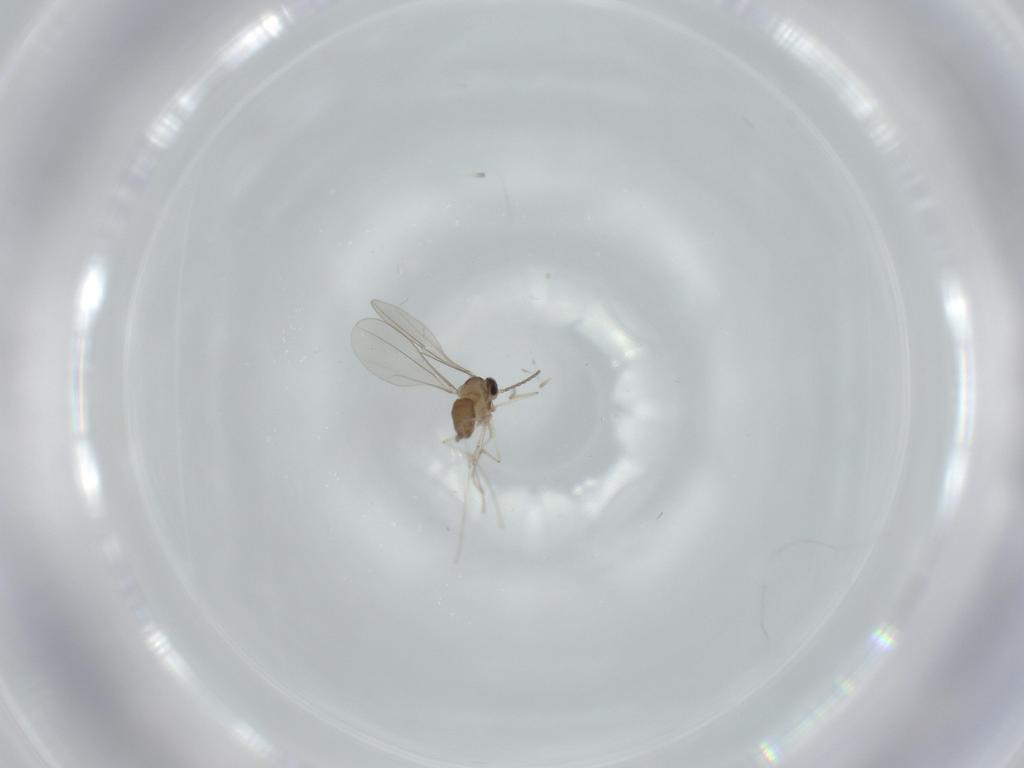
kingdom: Animalia
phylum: Arthropoda
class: Insecta
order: Diptera
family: Cecidomyiidae
